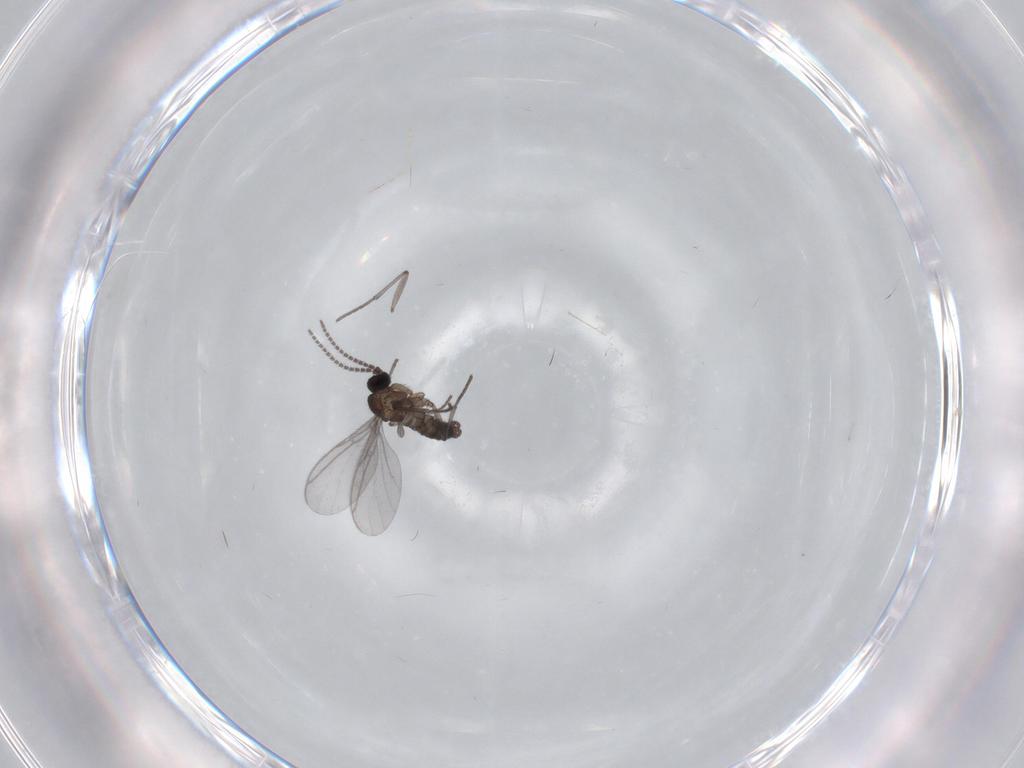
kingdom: Animalia
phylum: Arthropoda
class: Insecta
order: Diptera
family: Cecidomyiidae
